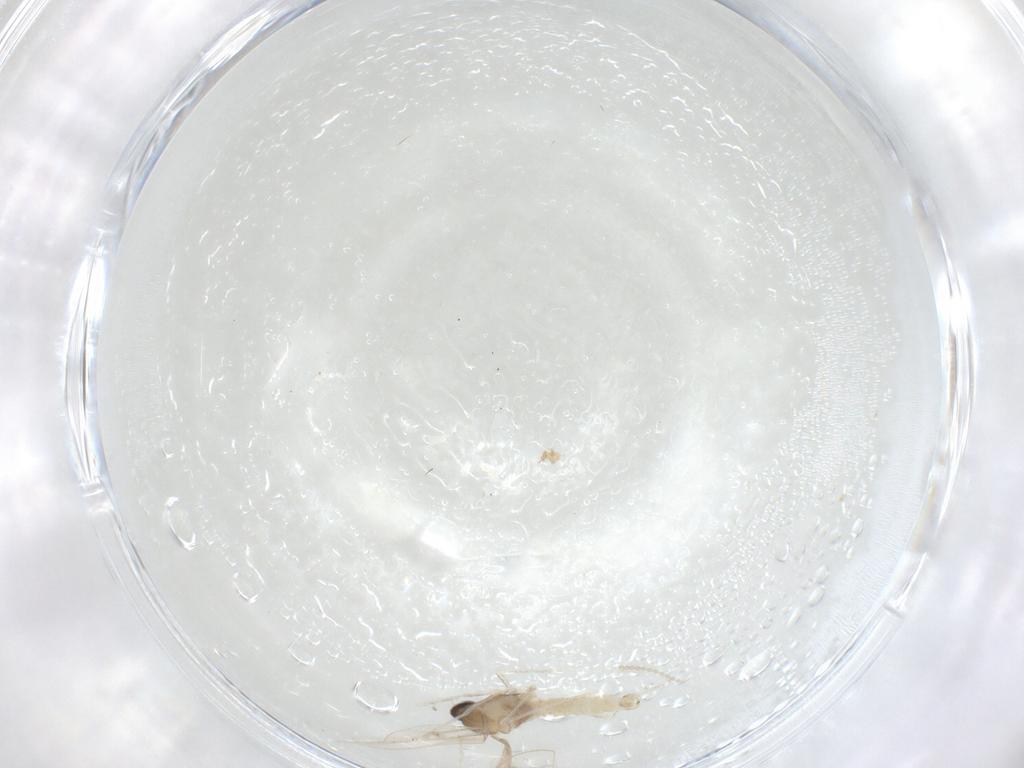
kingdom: Animalia
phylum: Arthropoda
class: Insecta
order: Diptera
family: Cecidomyiidae
